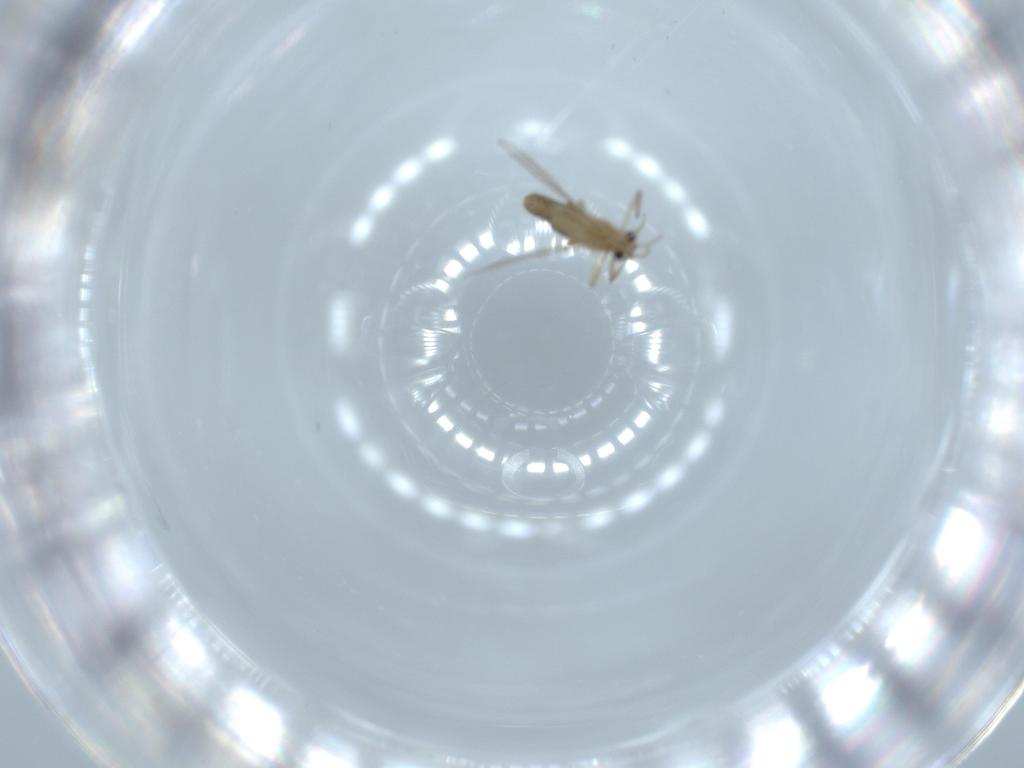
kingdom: Animalia
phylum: Arthropoda
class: Insecta
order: Diptera
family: Chironomidae
